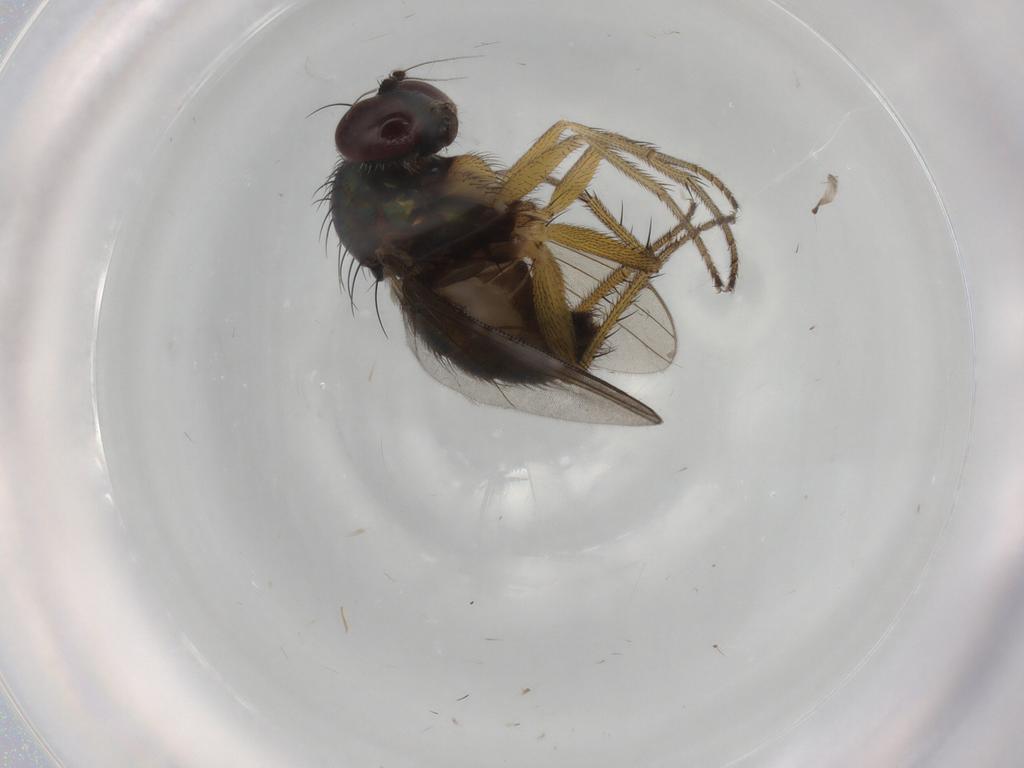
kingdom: Animalia
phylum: Arthropoda
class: Insecta
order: Diptera
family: Dolichopodidae
